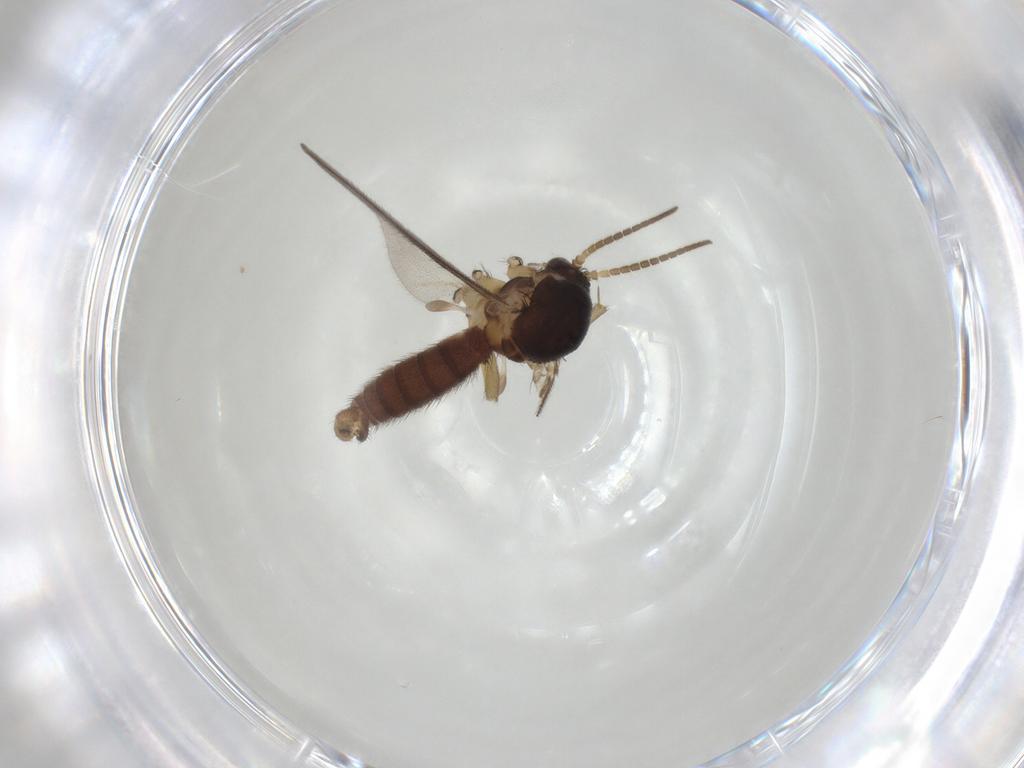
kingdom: Animalia
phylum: Arthropoda
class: Insecta
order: Diptera
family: Mycetophilidae
